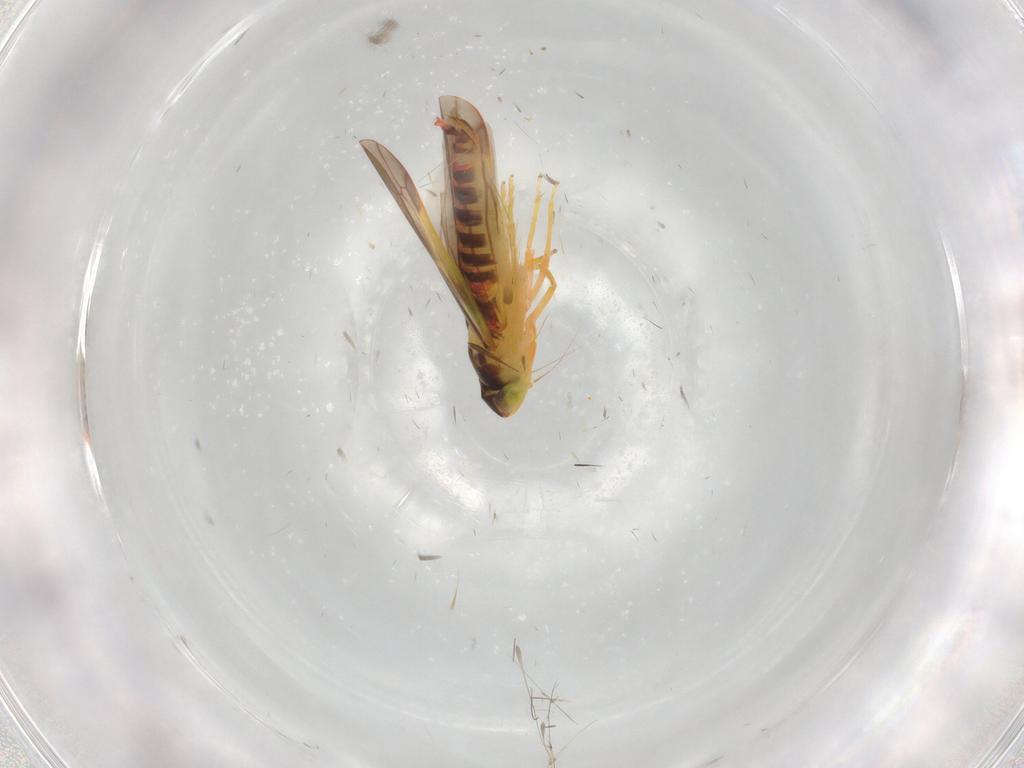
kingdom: Animalia
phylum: Arthropoda
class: Insecta
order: Hemiptera
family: Cicadellidae
